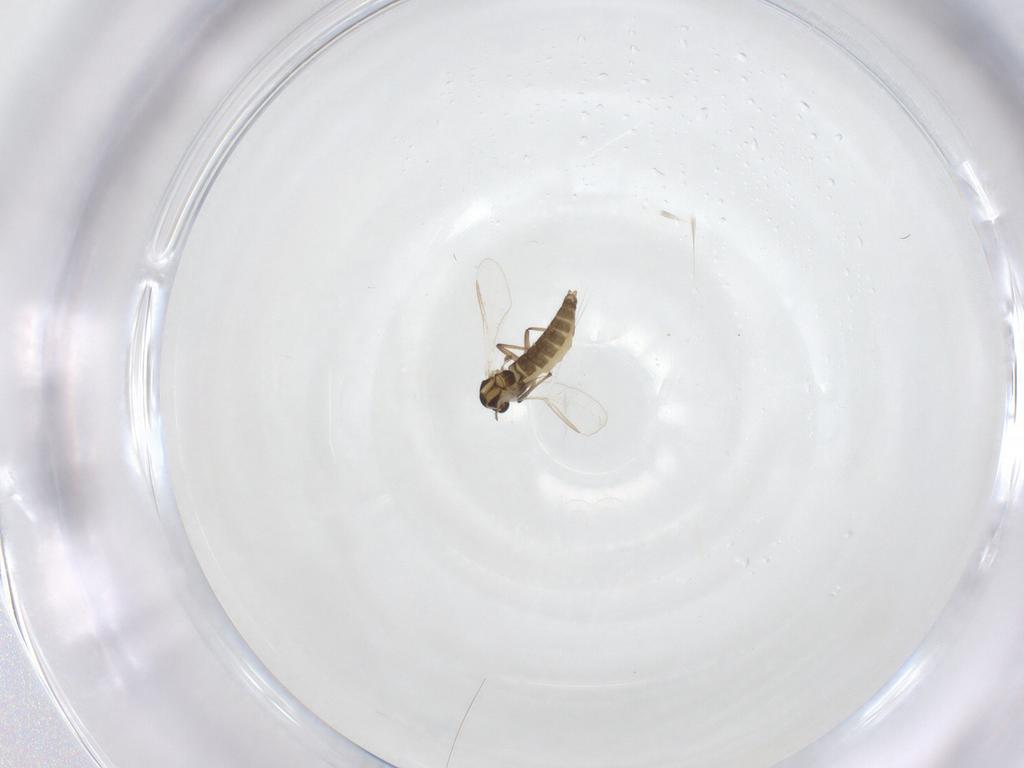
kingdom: Animalia
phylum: Arthropoda
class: Insecta
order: Diptera
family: Chironomidae
